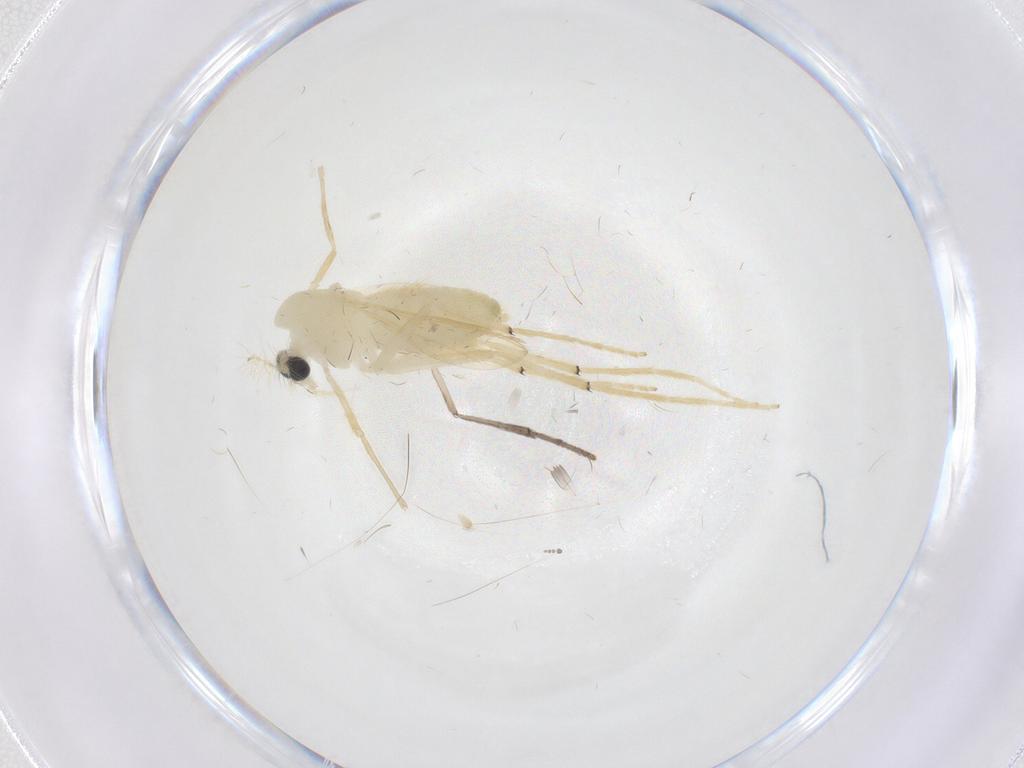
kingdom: Animalia
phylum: Arthropoda
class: Insecta
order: Diptera
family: Chironomidae
